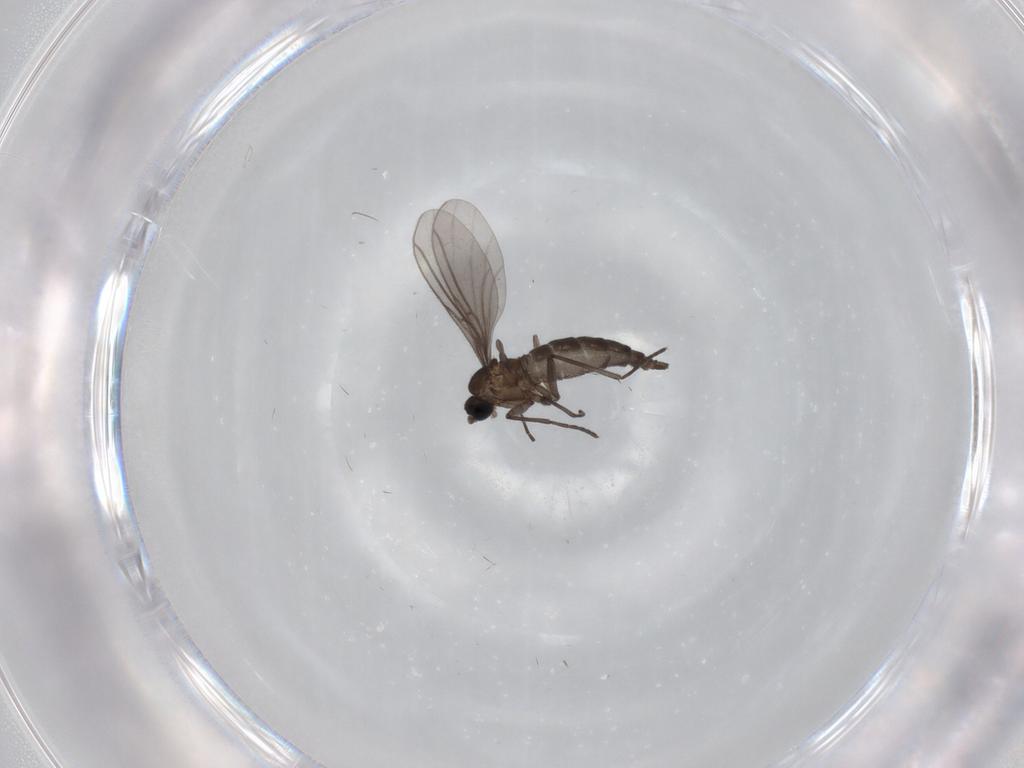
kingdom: Animalia
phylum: Arthropoda
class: Insecta
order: Diptera
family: Cecidomyiidae
